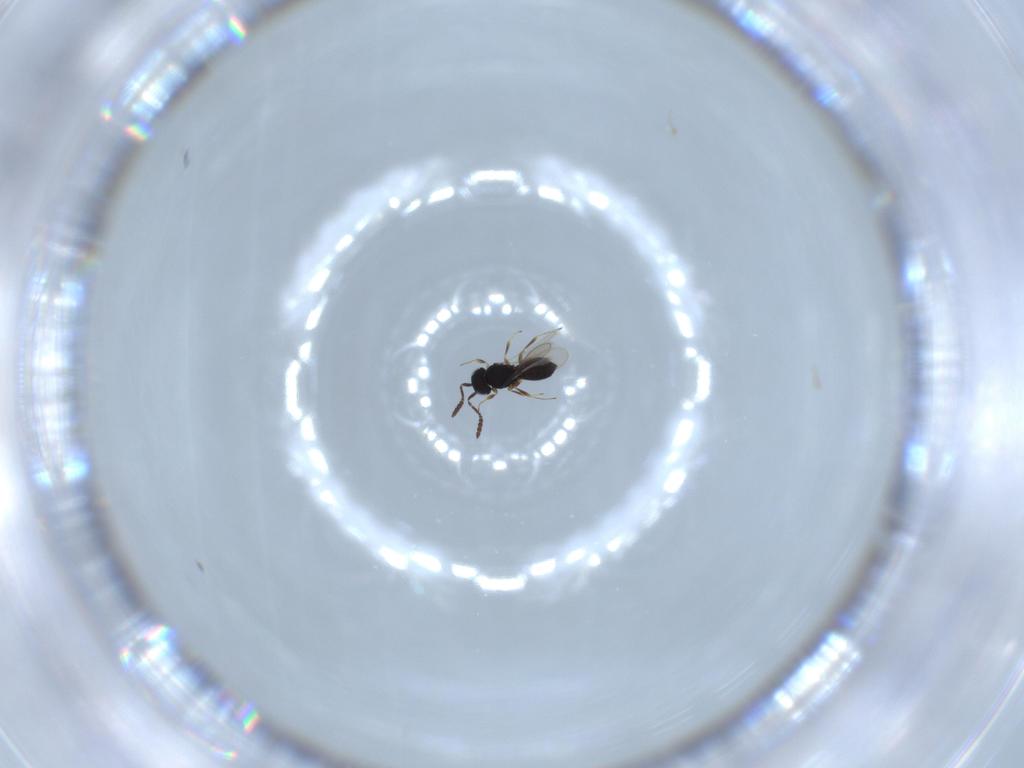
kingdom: Animalia
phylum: Arthropoda
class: Insecta
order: Hymenoptera
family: Scelionidae
